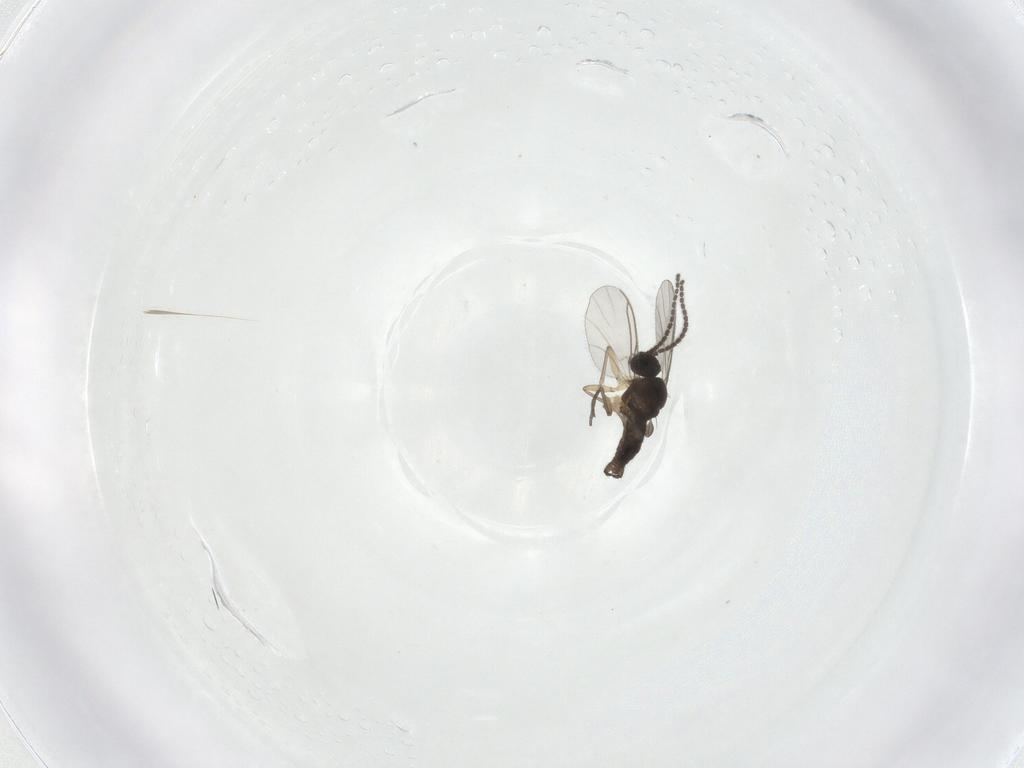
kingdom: Animalia
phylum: Arthropoda
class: Insecta
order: Diptera
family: Sciaridae
